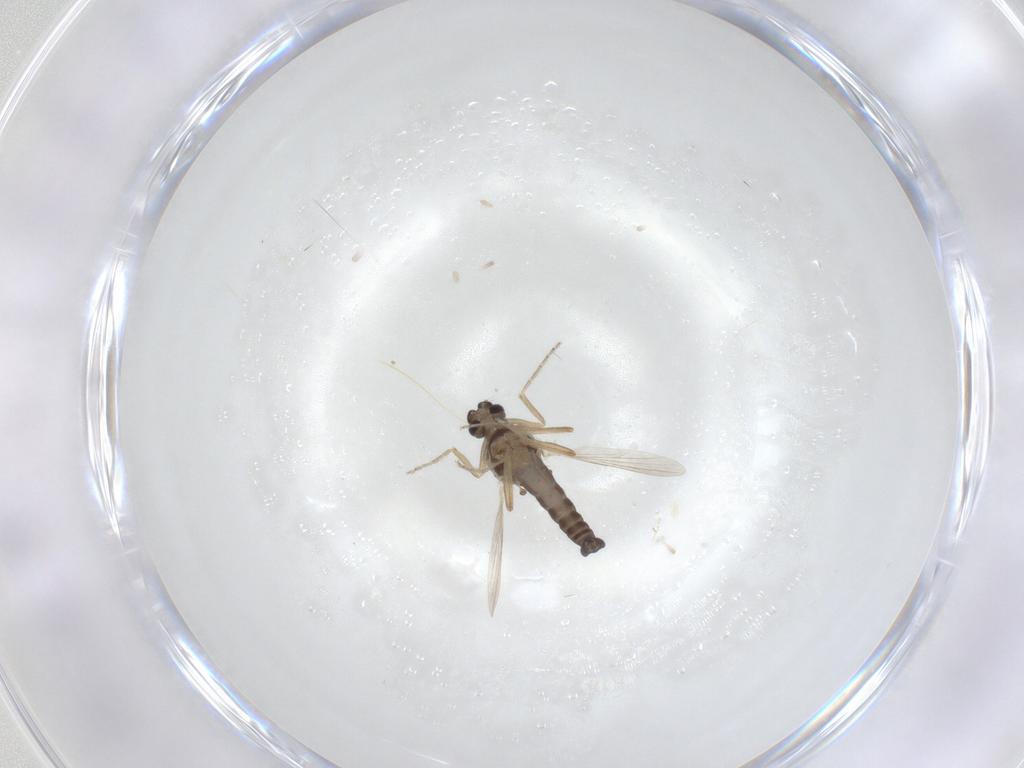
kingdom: Animalia
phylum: Arthropoda
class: Insecta
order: Diptera
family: Ceratopogonidae
